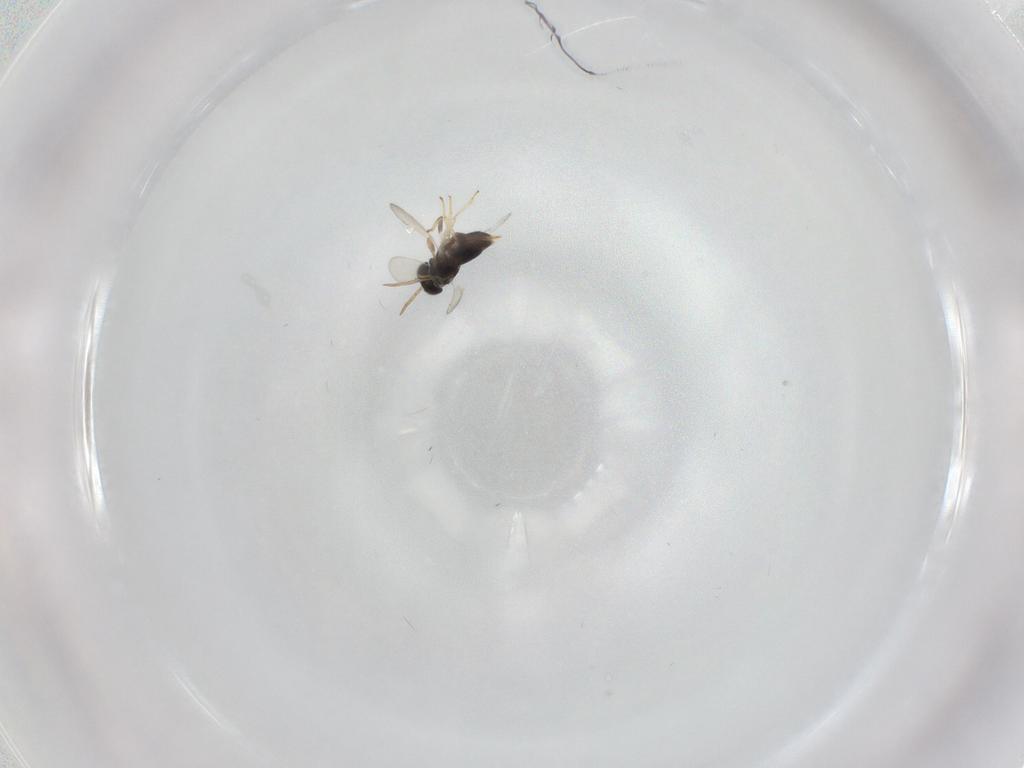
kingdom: Animalia
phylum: Arthropoda
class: Insecta
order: Hymenoptera
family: Aphelinidae
